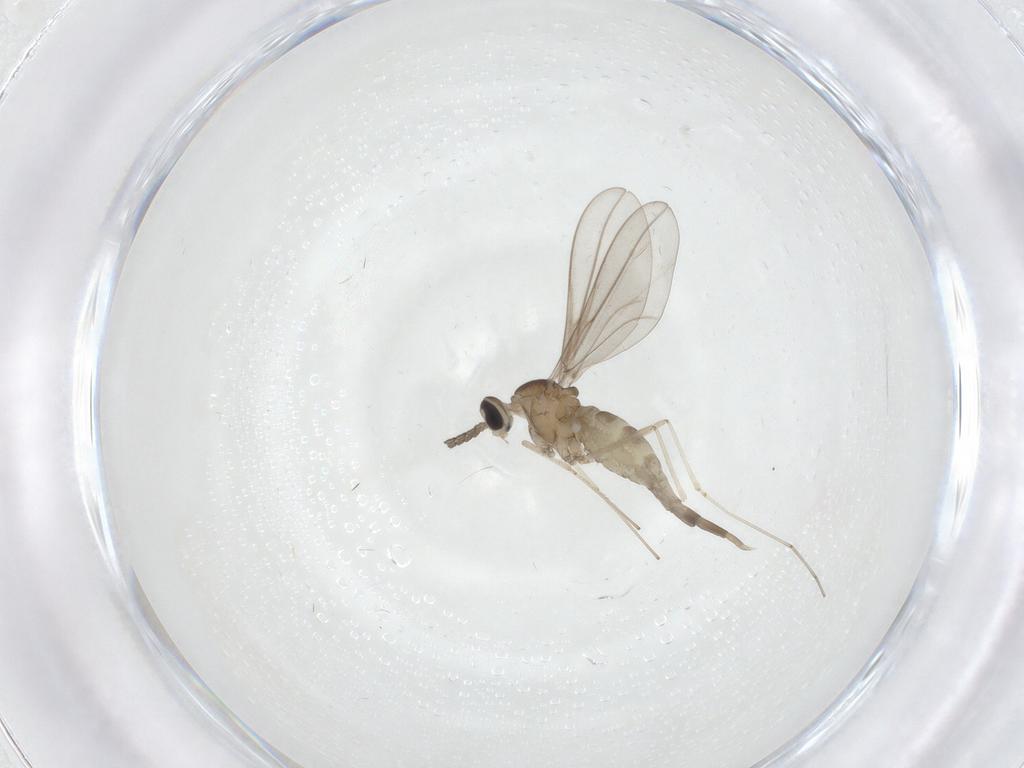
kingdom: Animalia
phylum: Arthropoda
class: Insecta
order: Diptera
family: Cecidomyiidae
